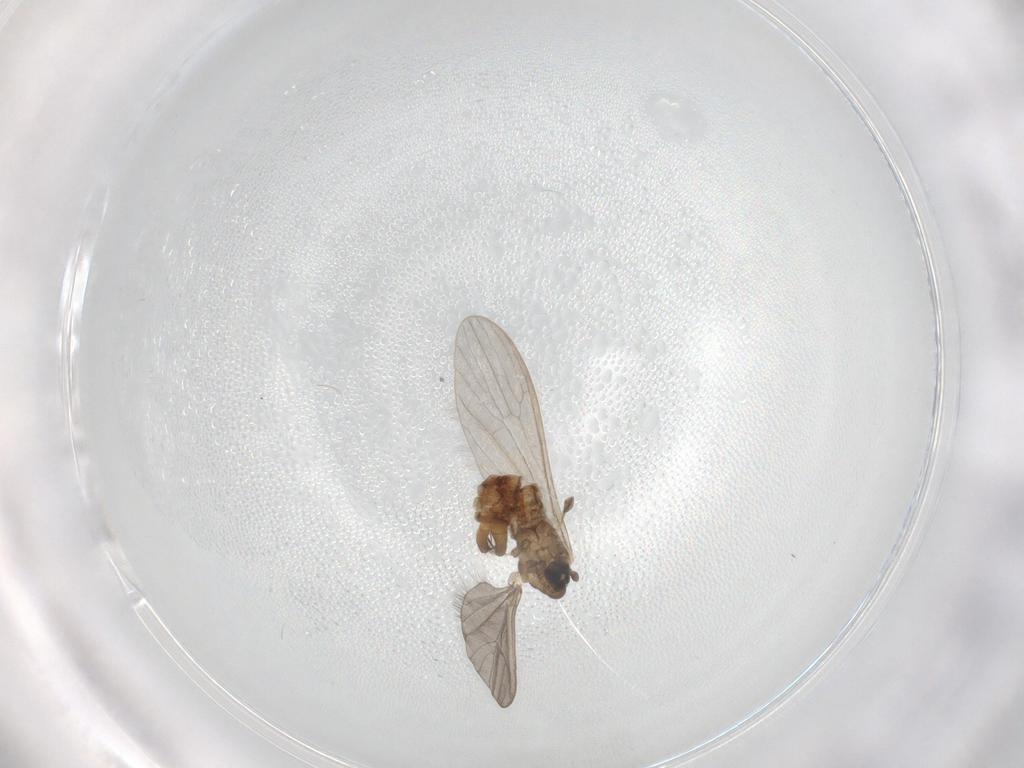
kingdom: Animalia
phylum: Arthropoda
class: Insecta
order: Diptera
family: Limoniidae
